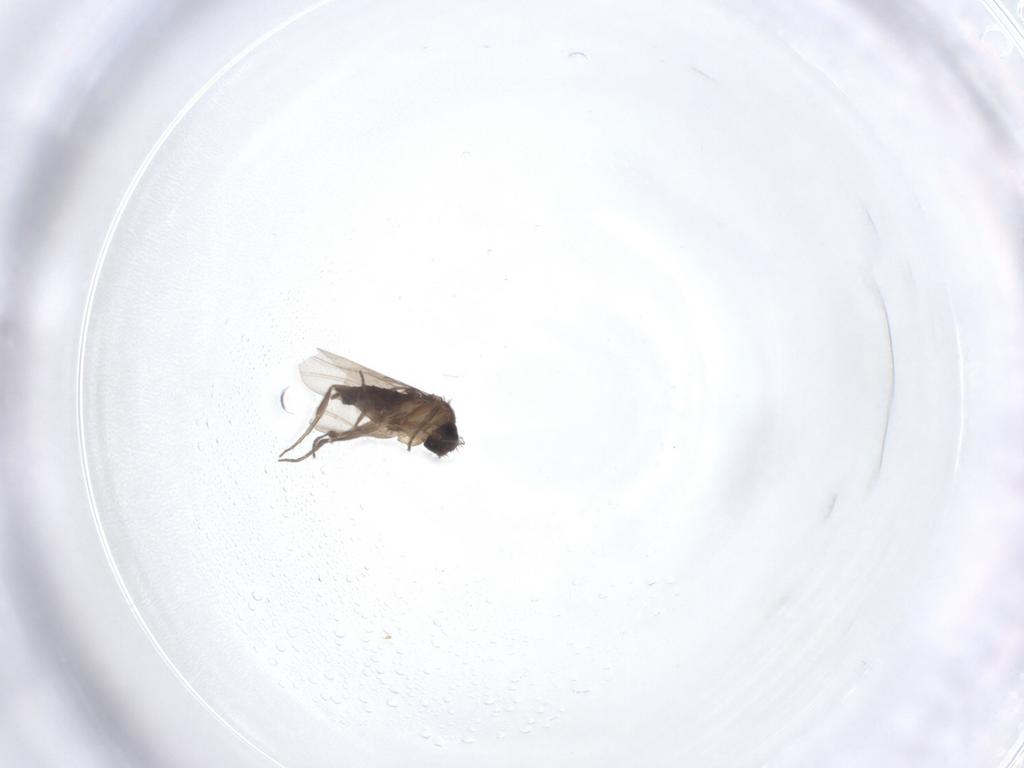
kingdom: Animalia
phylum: Arthropoda
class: Insecta
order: Diptera
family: Phoridae
